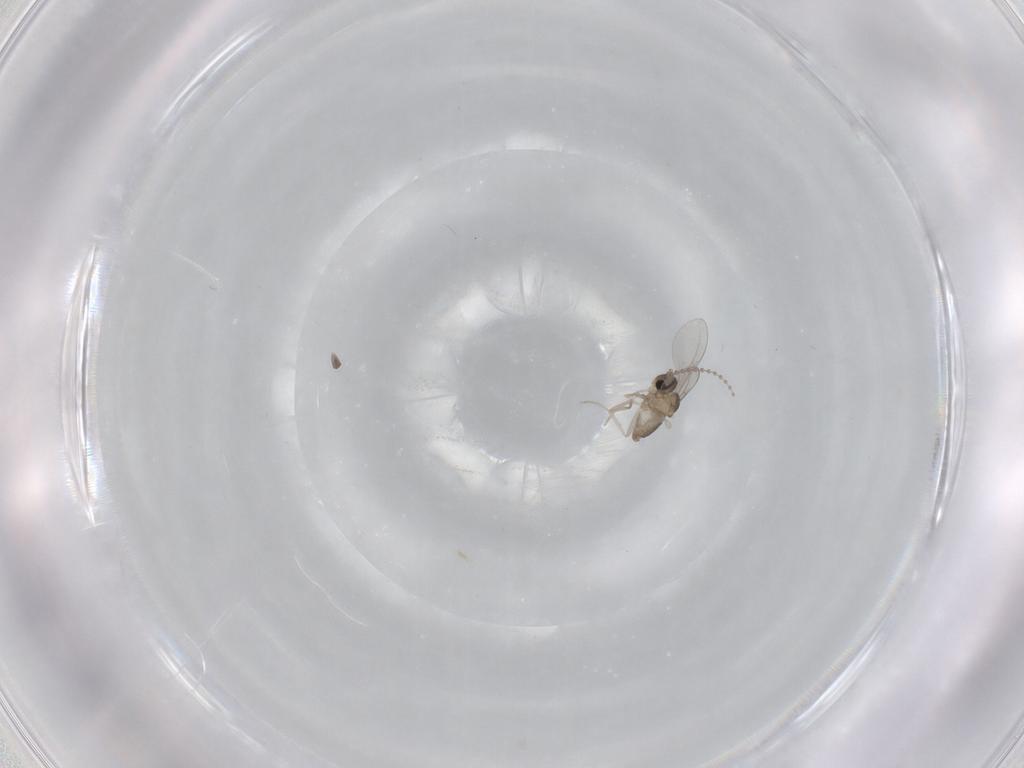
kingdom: Animalia
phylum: Arthropoda
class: Insecta
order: Diptera
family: Cecidomyiidae
